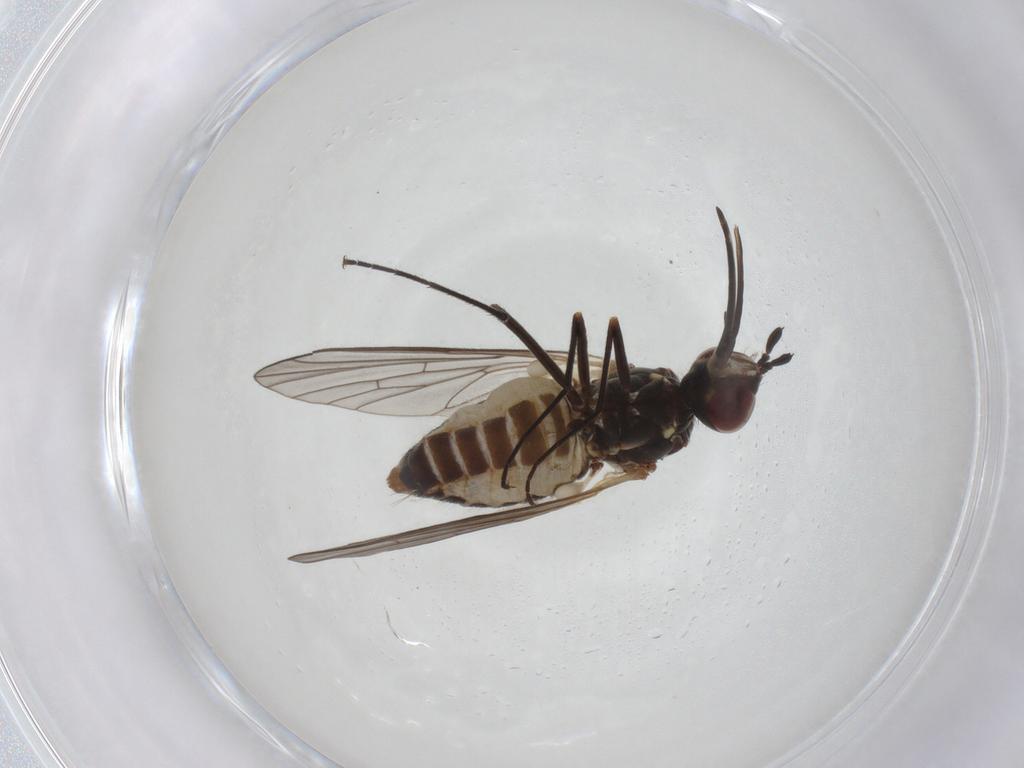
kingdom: Animalia
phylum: Arthropoda
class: Insecta
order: Diptera
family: Bombyliidae
